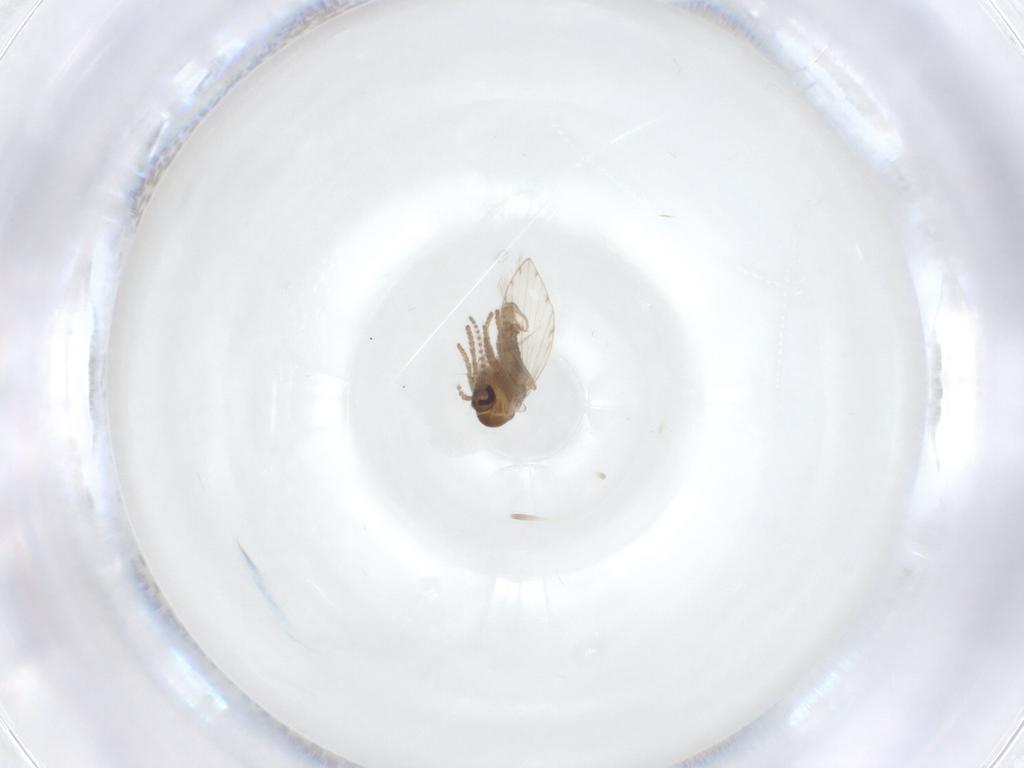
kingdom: Animalia
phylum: Arthropoda
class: Insecta
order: Diptera
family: Psychodidae
